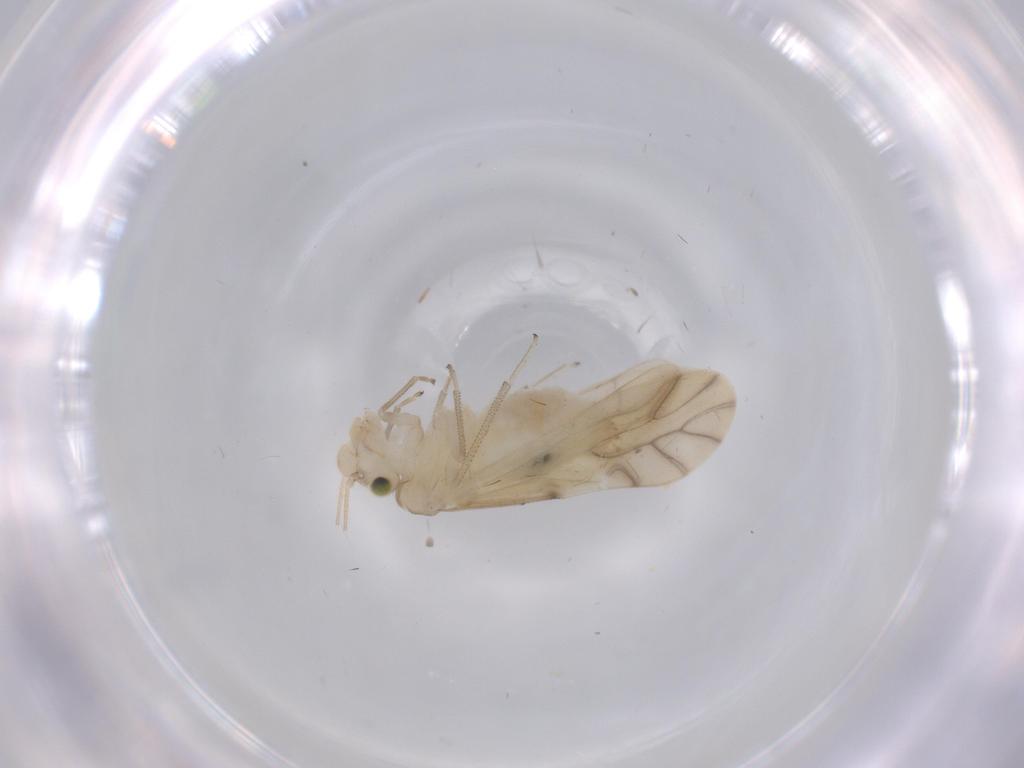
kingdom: Animalia
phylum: Arthropoda
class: Insecta
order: Psocodea
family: Caeciliusidae
